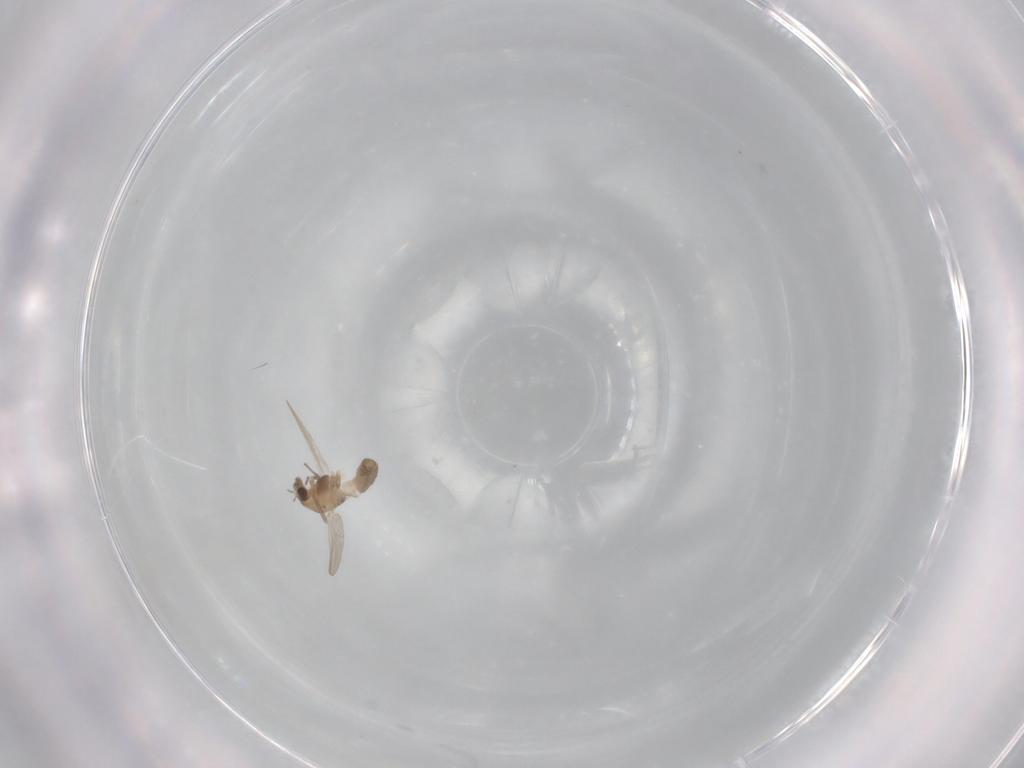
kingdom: Animalia
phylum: Arthropoda
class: Insecta
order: Diptera
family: Chironomidae
